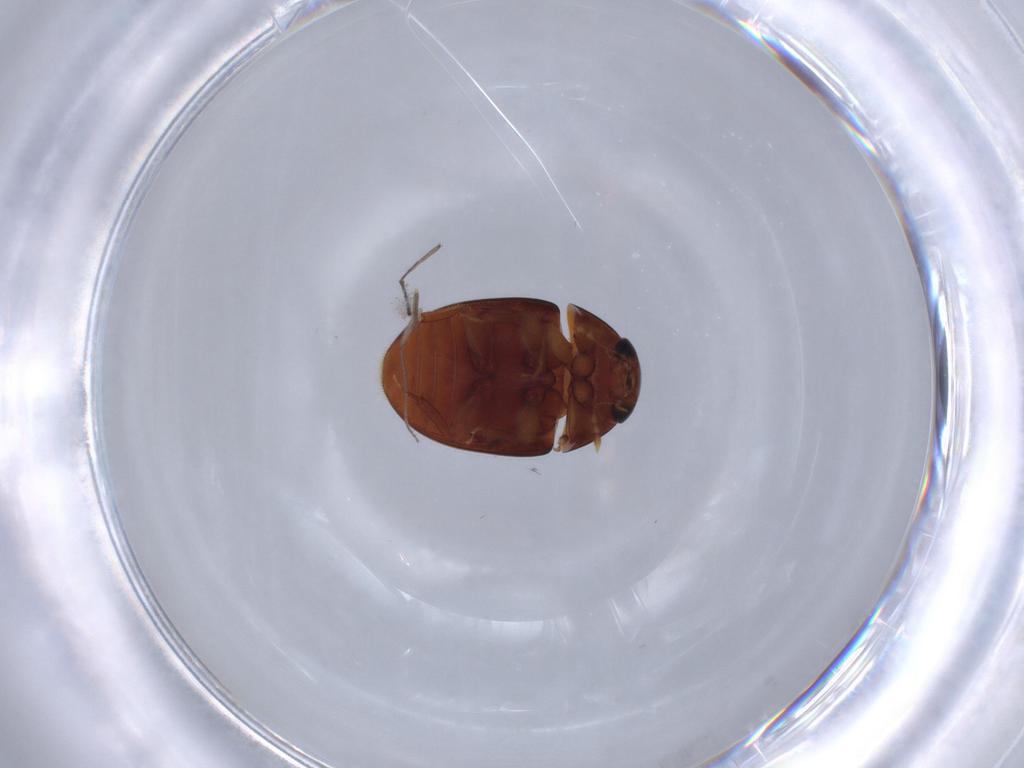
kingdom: Animalia
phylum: Arthropoda
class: Insecta
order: Coleoptera
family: Phalacridae
